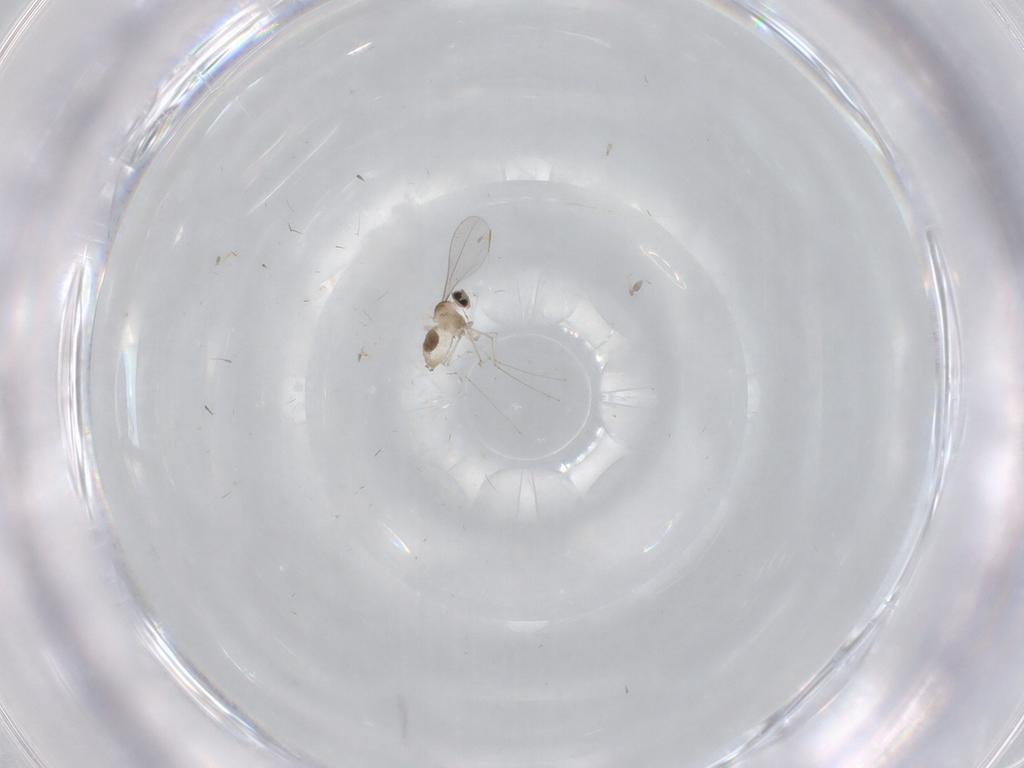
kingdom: Animalia
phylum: Arthropoda
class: Insecta
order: Diptera
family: Cecidomyiidae
